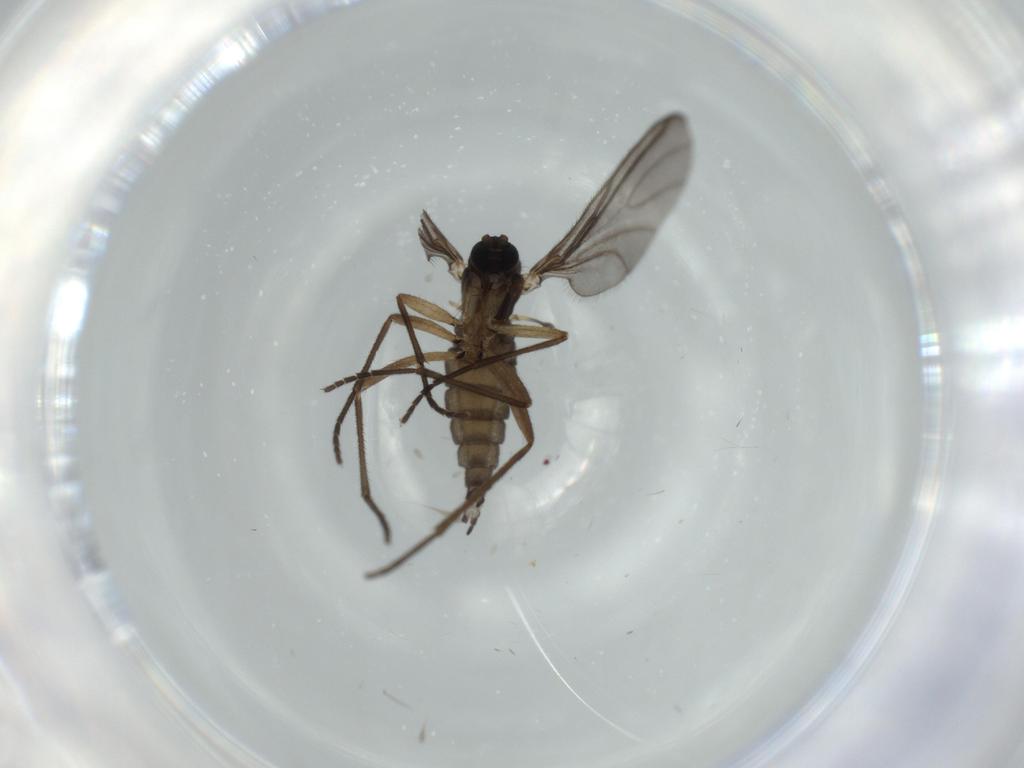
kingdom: Animalia
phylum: Arthropoda
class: Insecta
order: Diptera
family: Sciaridae
